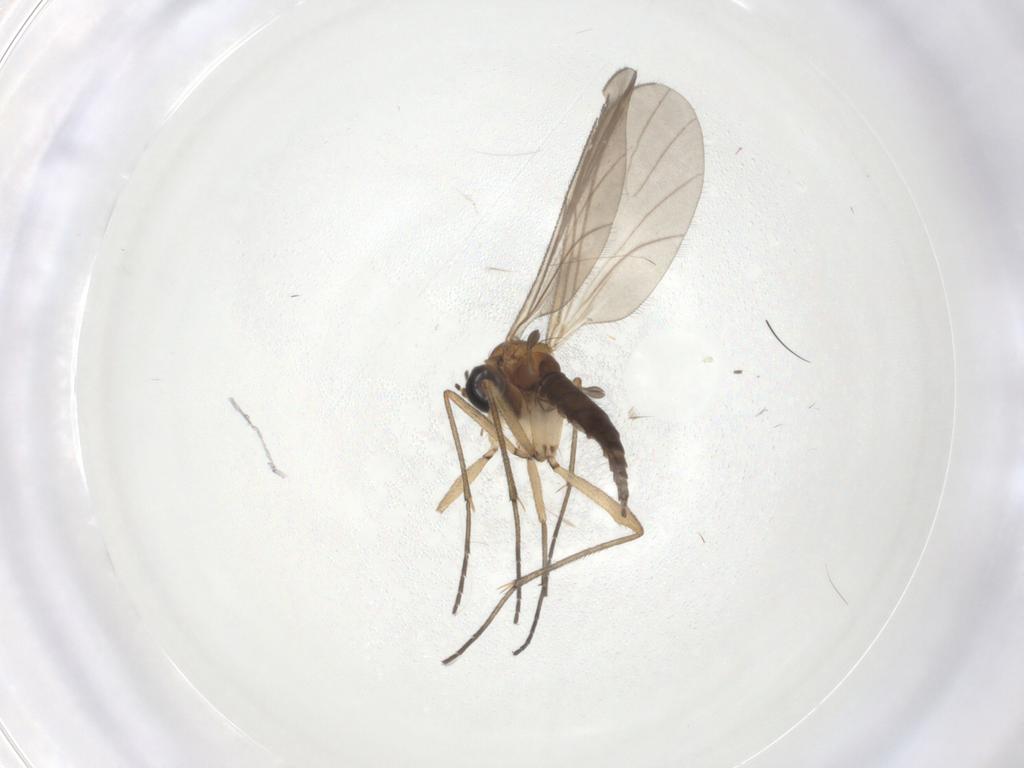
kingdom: Animalia
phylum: Arthropoda
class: Insecta
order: Diptera
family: Sciaridae
